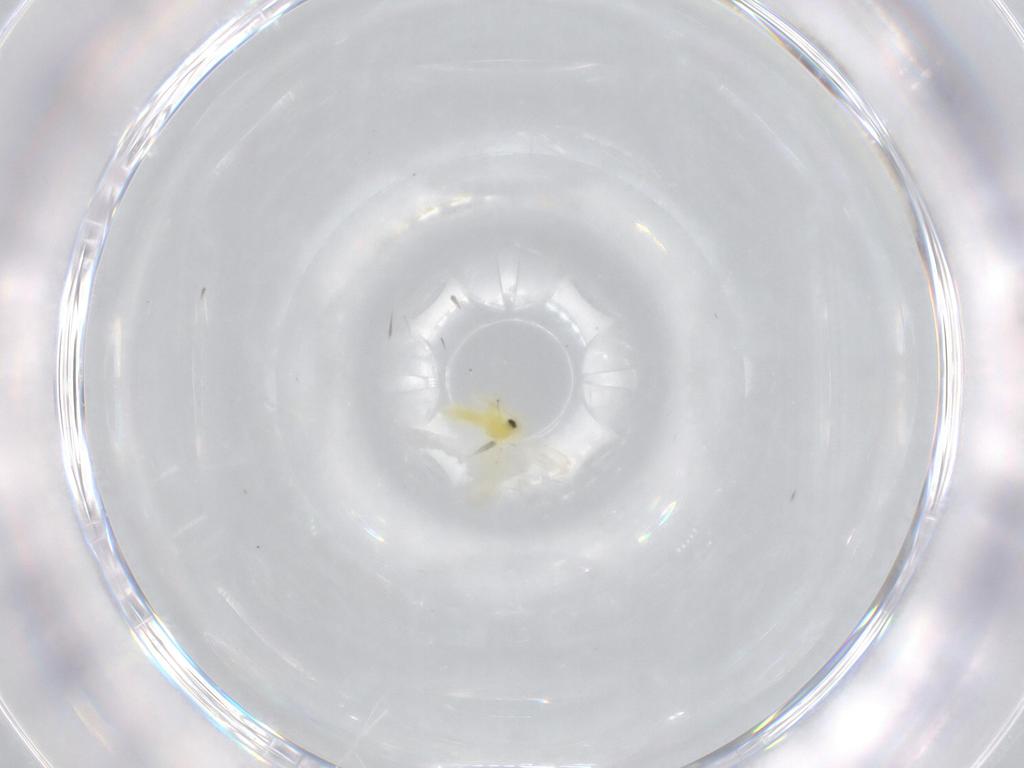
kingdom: Animalia
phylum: Arthropoda
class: Insecta
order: Hemiptera
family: Aleyrodidae
